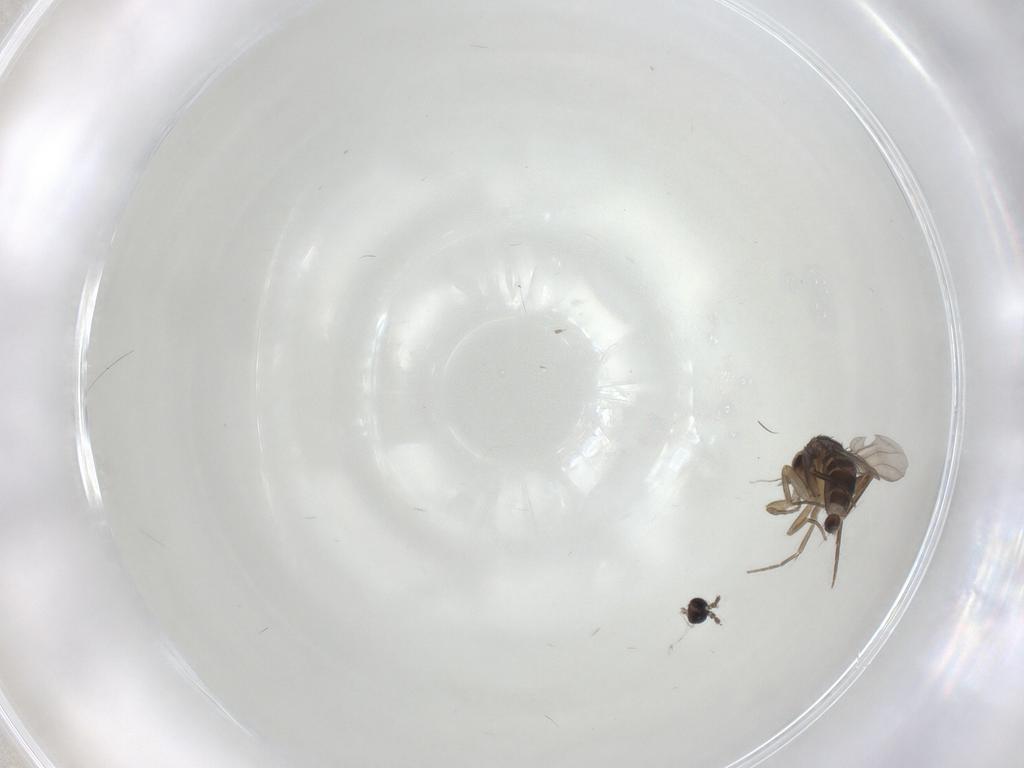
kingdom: Animalia
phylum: Arthropoda
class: Insecta
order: Diptera
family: Phoridae
